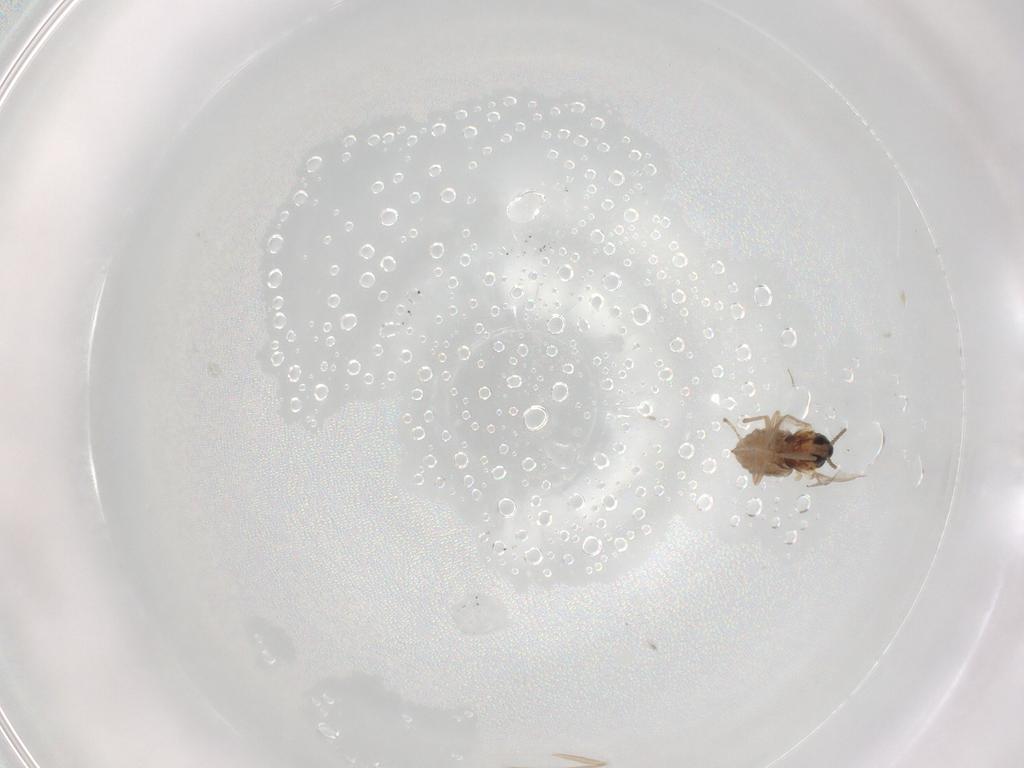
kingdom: Animalia
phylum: Arthropoda
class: Insecta
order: Diptera
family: Cecidomyiidae
